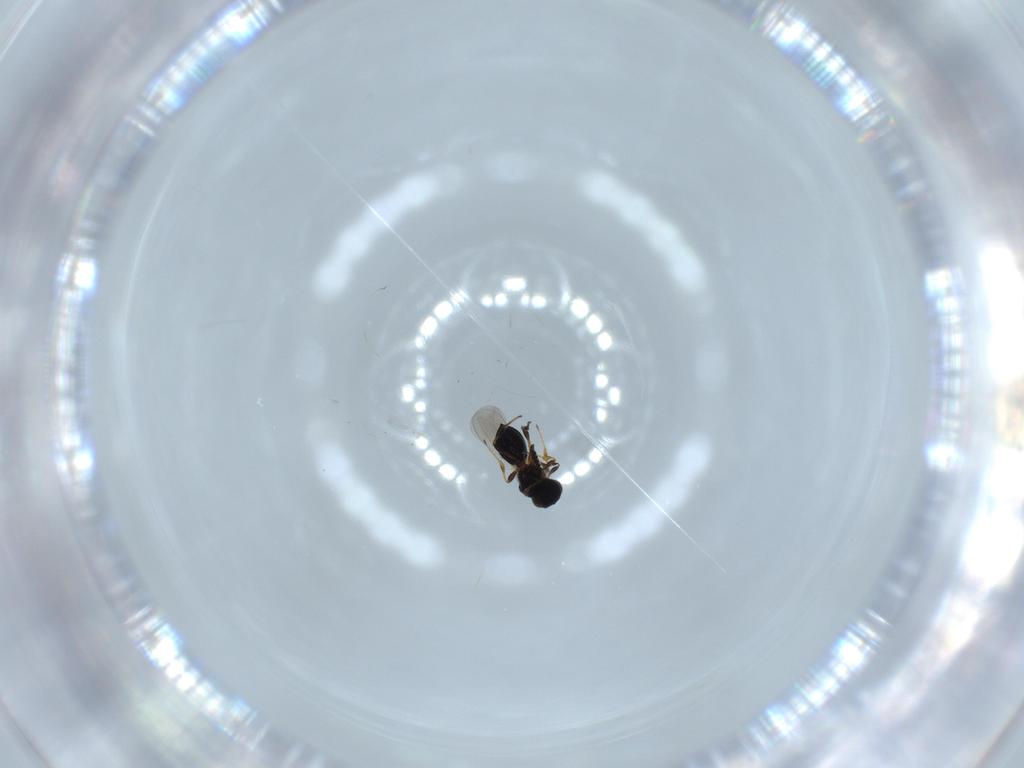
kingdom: Animalia
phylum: Arthropoda
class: Insecta
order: Hymenoptera
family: Platygastridae
